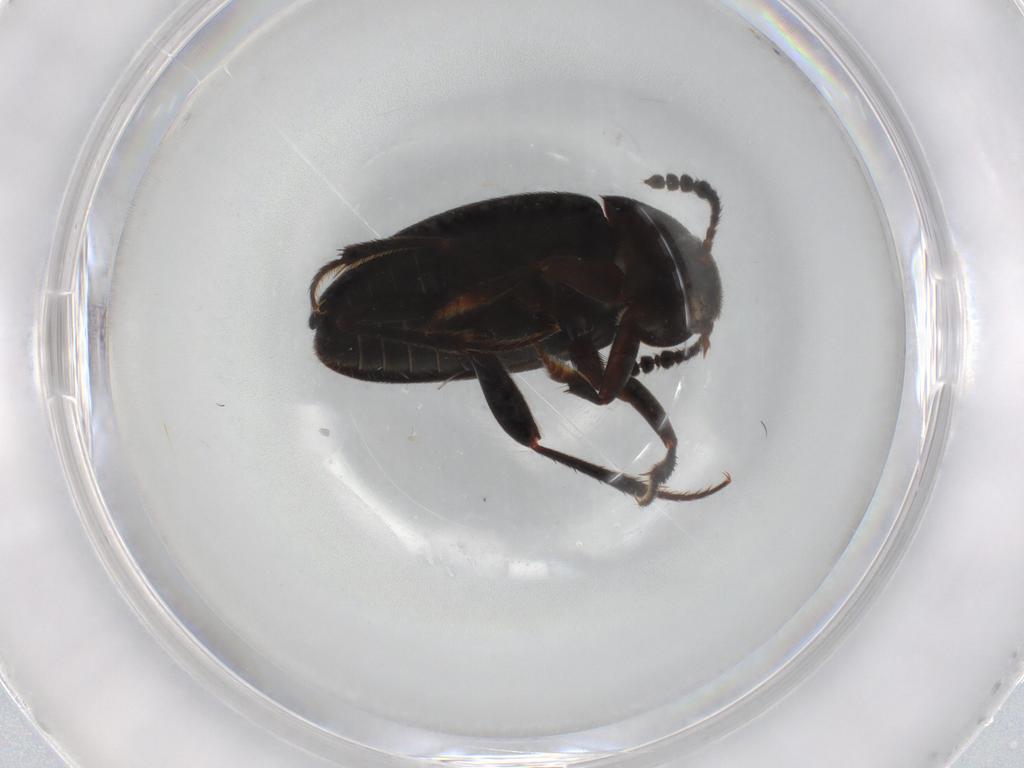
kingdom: Animalia
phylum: Arthropoda
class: Insecta
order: Coleoptera
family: Leiodidae
